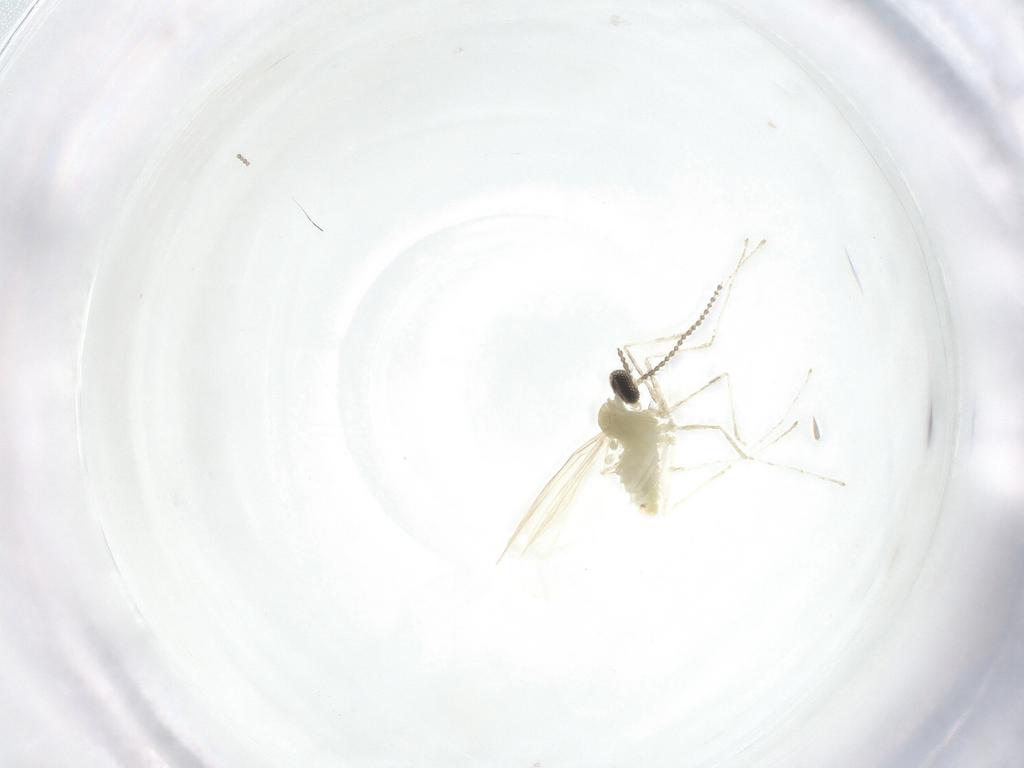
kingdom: Animalia
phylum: Arthropoda
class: Insecta
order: Diptera
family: Cecidomyiidae
